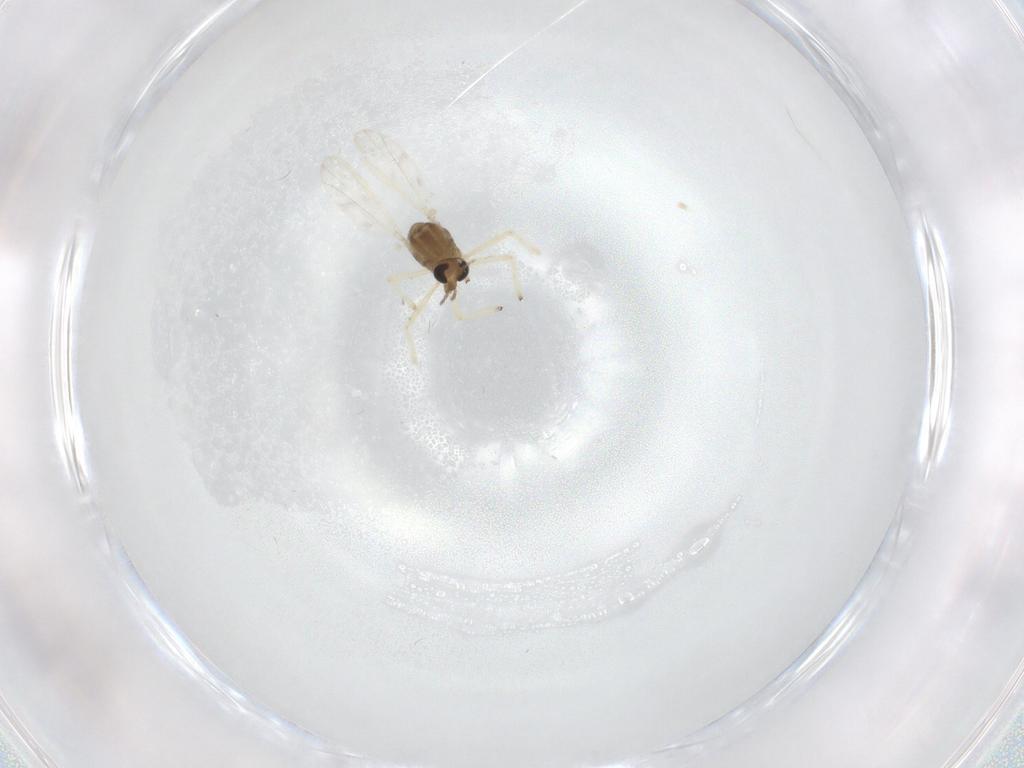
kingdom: Animalia
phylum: Arthropoda
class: Insecta
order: Diptera
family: Chironomidae
